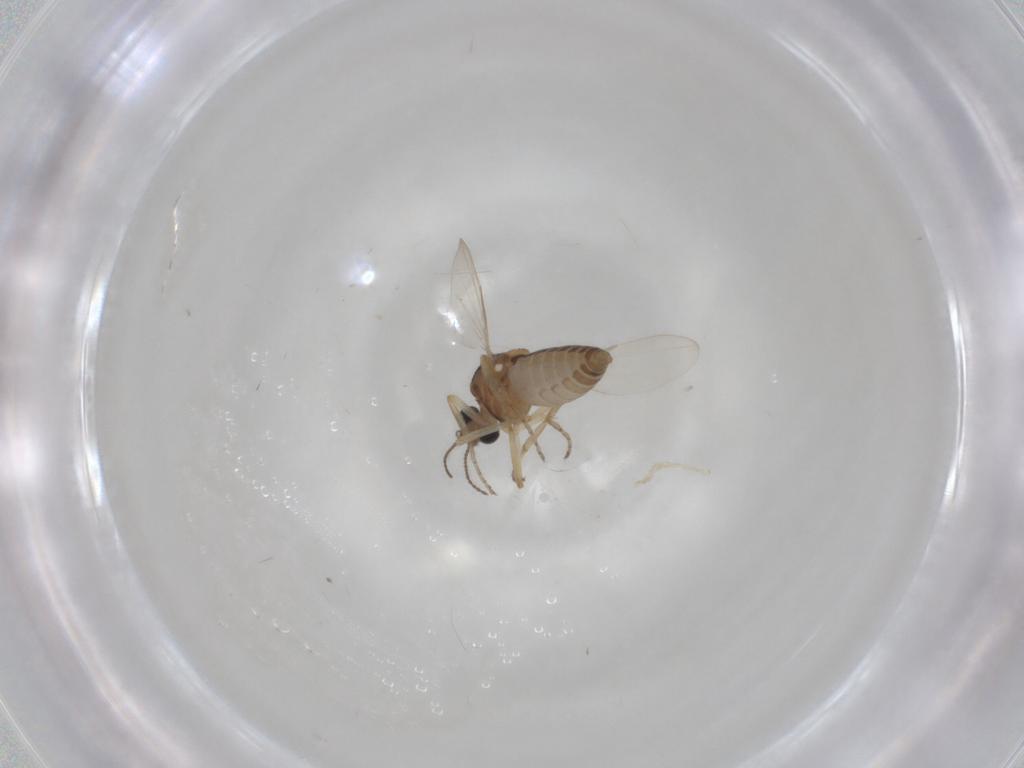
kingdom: Animalia
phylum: Arthropoda
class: Insecta
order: Diptera
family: Ceratopogonidae
